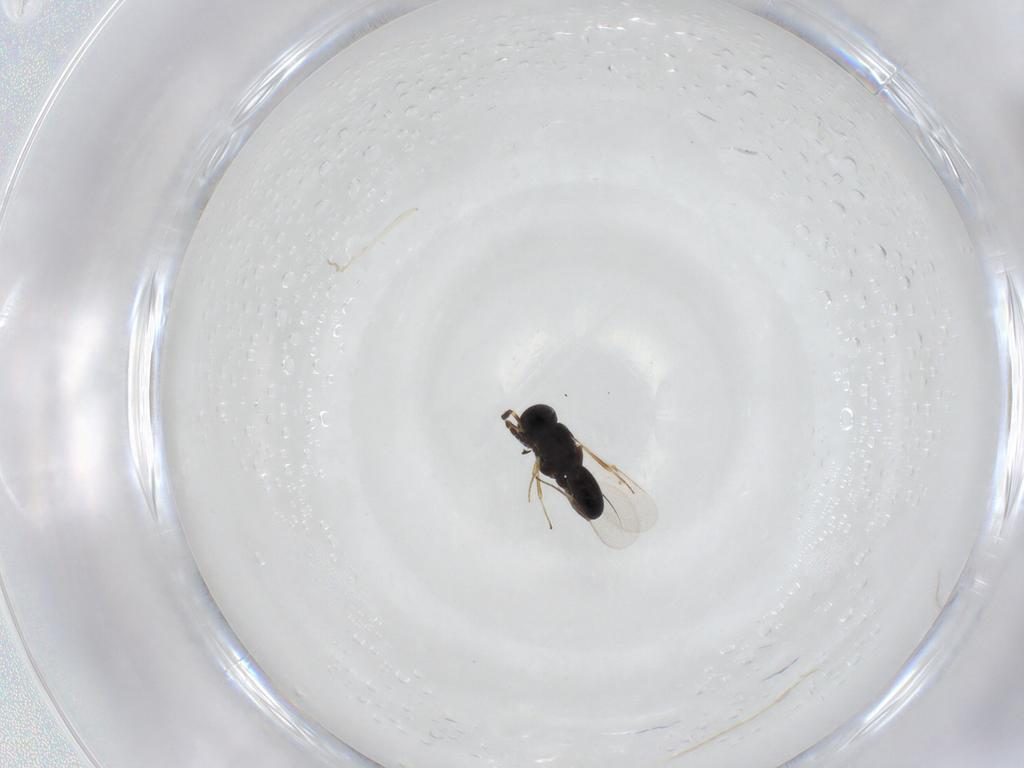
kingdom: Animalia
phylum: Arthropoda
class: Insecta
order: Hymenoptera
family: Scelionidae
